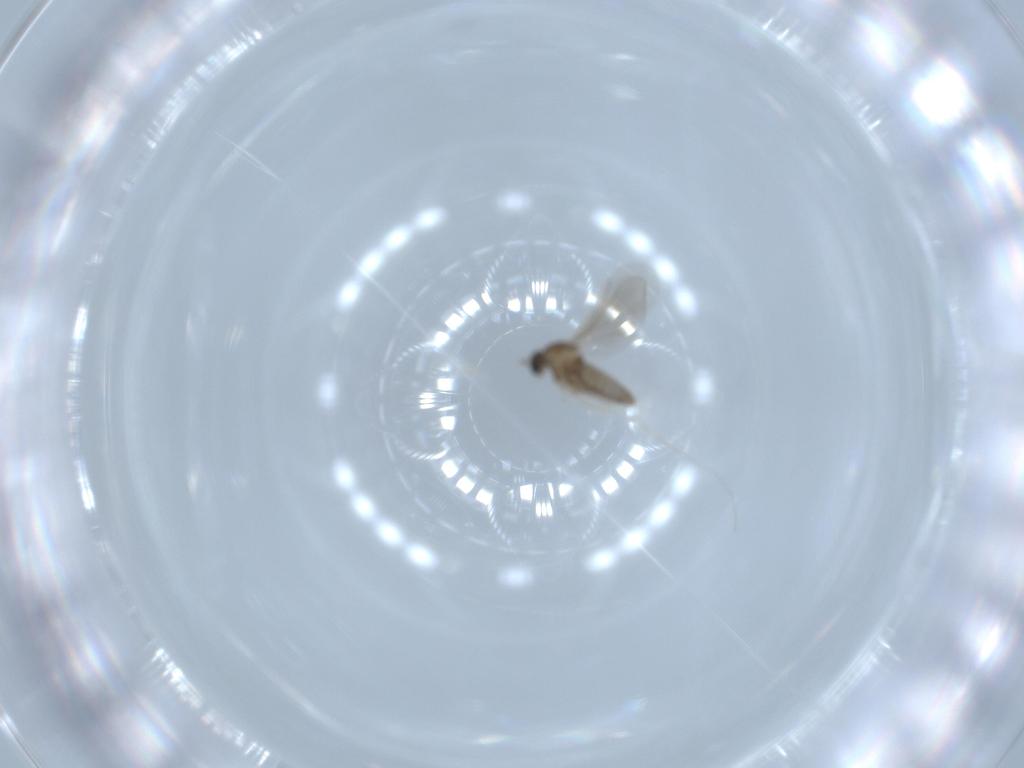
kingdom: Animalia
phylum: Arthropoda
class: Insecta
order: Diptera
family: Cecidomyiidae
